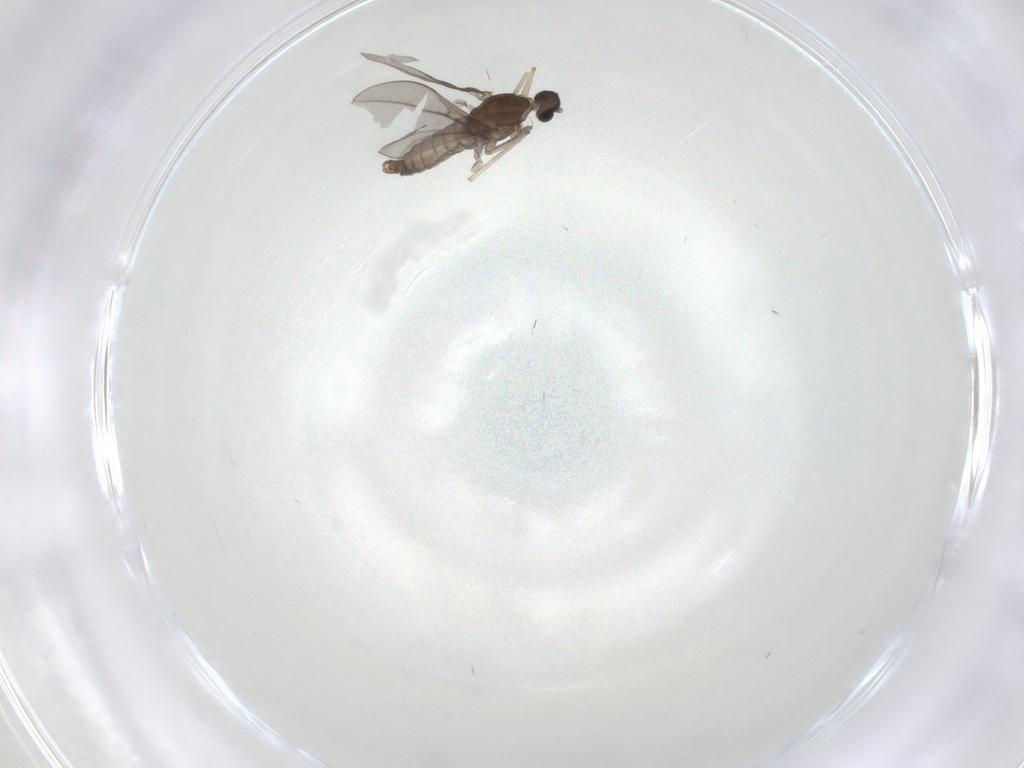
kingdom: Animalia
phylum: Arthropoda
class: Insecta
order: Diptera
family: Cecidomyiidae
